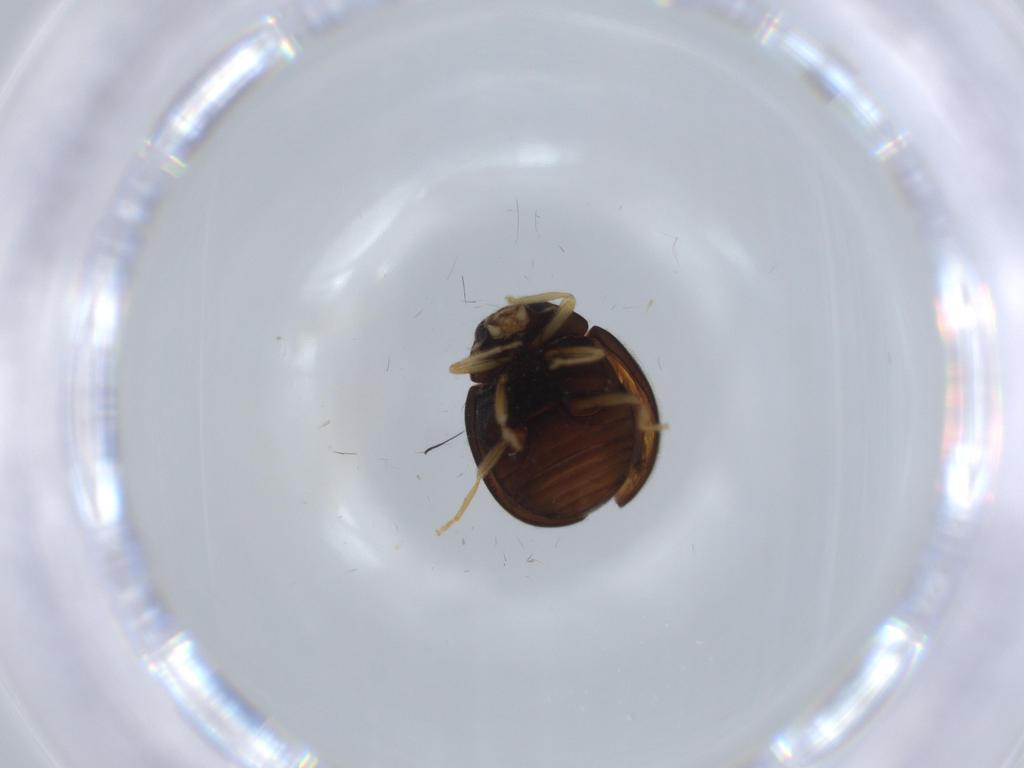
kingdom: Animalia
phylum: Arthropoda
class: Insecta
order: Coleoptera
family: Coccinellidae
